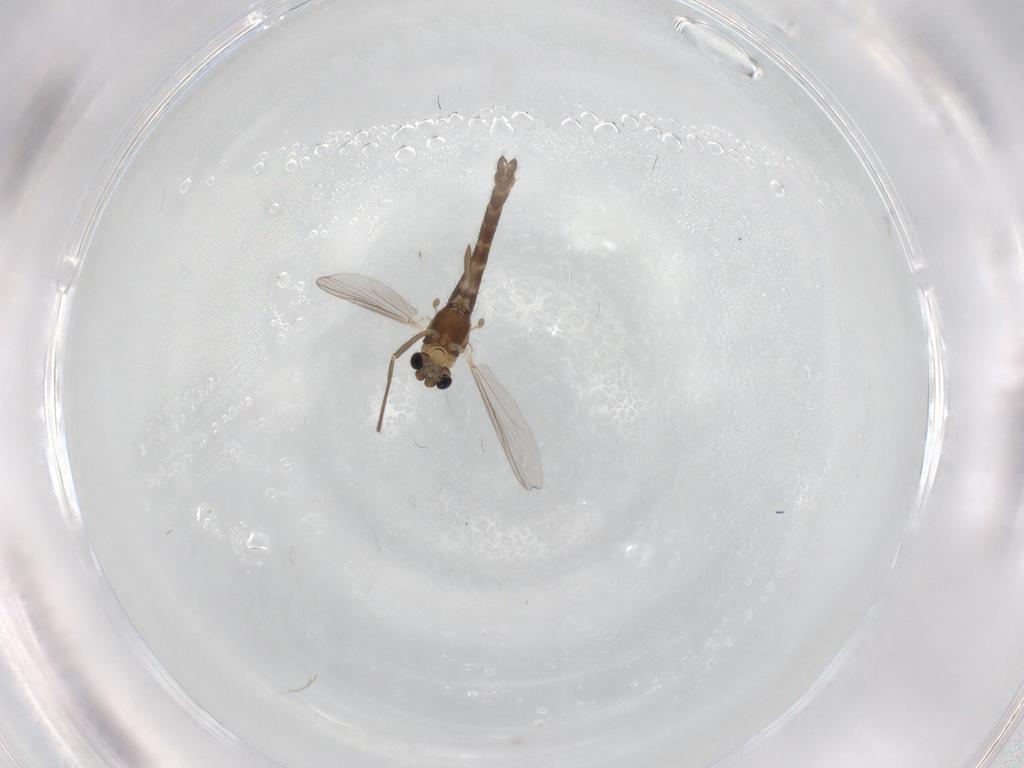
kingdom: Animalia
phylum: Arthropoda
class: Insecta
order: Diptera
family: Chironomidae
